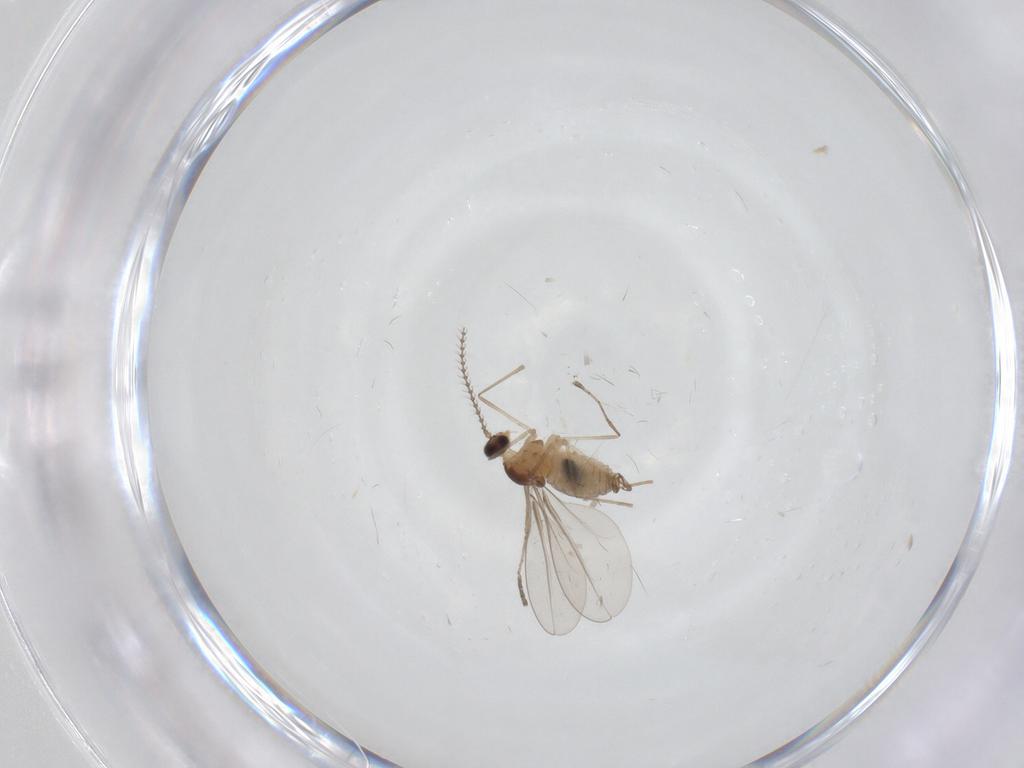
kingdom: Animalia
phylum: Arthropoda
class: Insecta
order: Diptera
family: Cecidomyiidae
